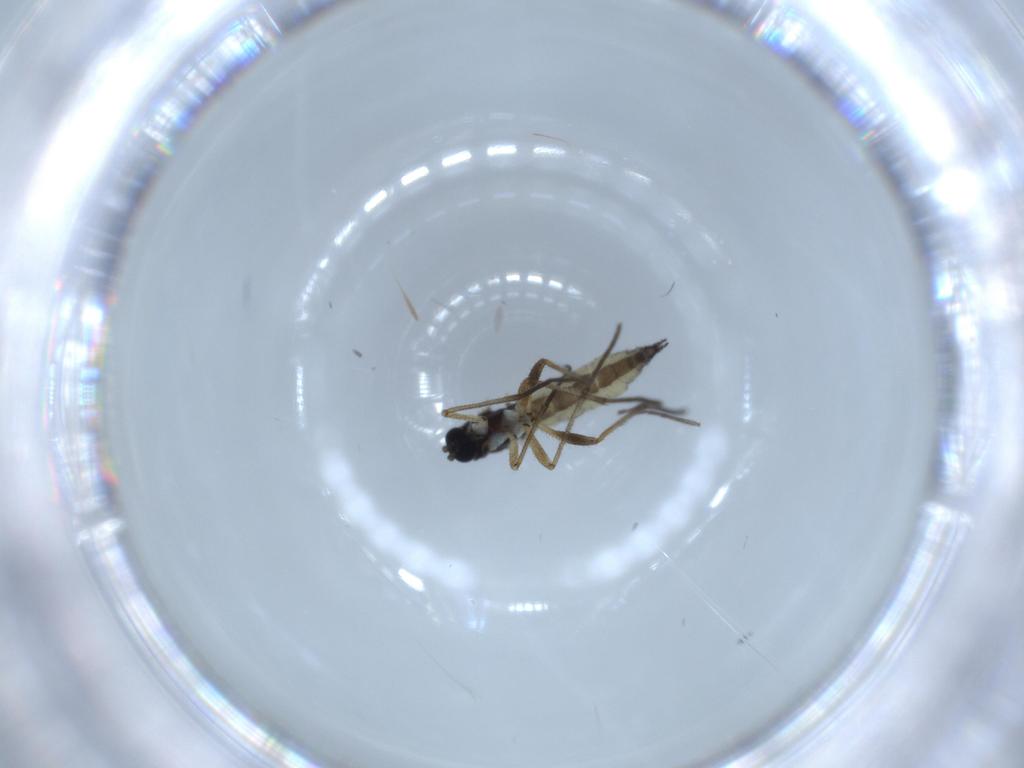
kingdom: Animalia
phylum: Arthropoda
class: Insecta
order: Diptera
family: Sciaridae
